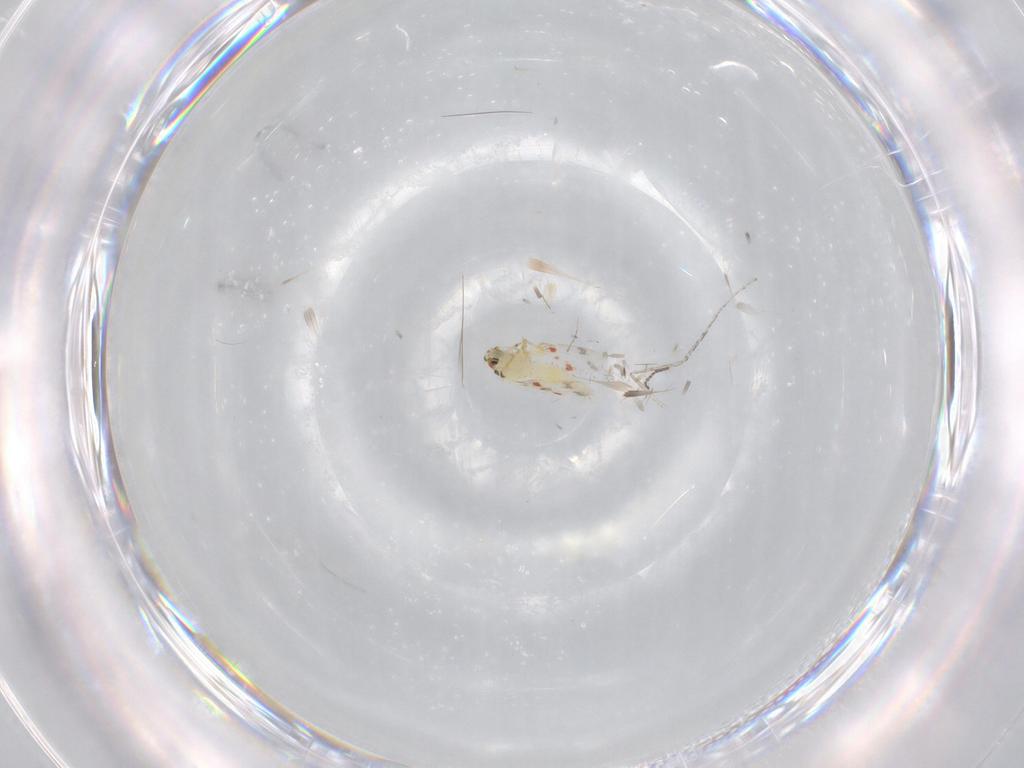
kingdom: Animalia
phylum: Arthropoda
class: Insecta
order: Hemiptera
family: Aleyrodidae
